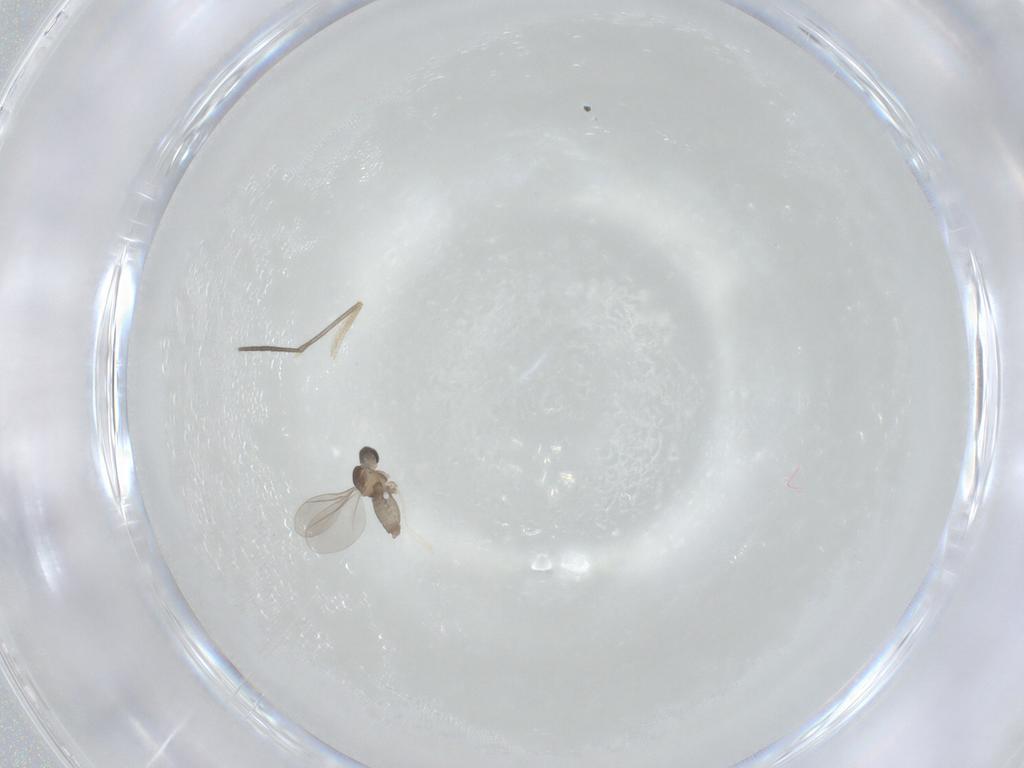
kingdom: Animalia
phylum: Arthropoda
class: Insecta
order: Diptera
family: Sciaridae
